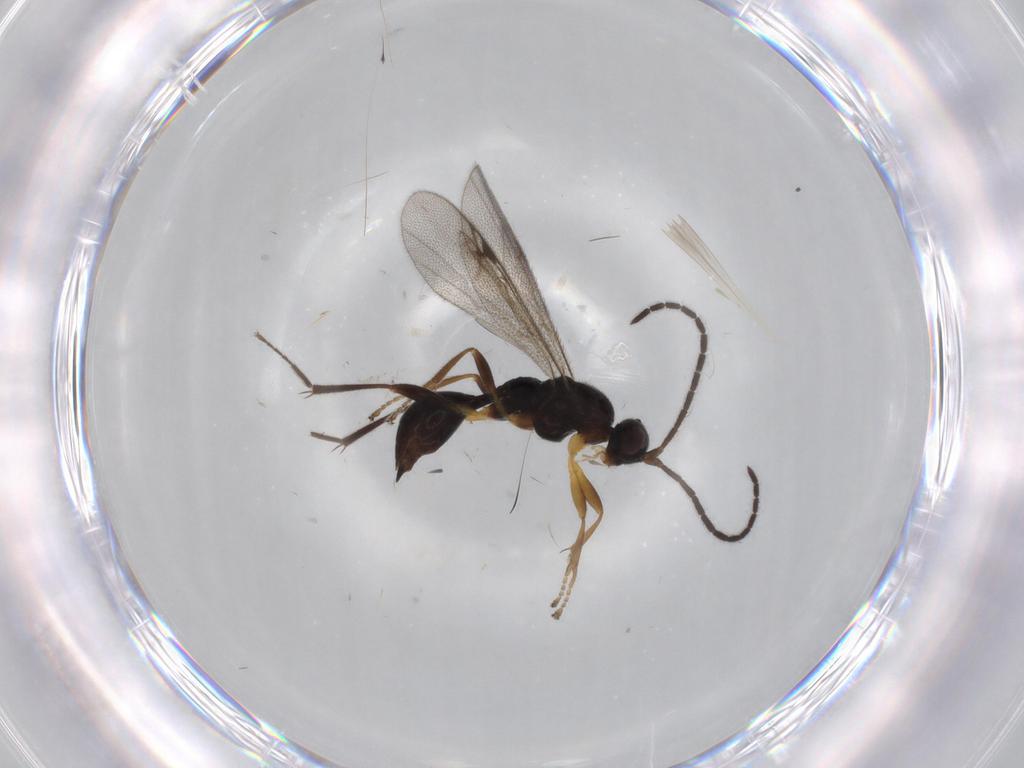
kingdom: Animalia
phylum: Arthropoda
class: Insecta
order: Hymenoptera
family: Proctotrupidae
